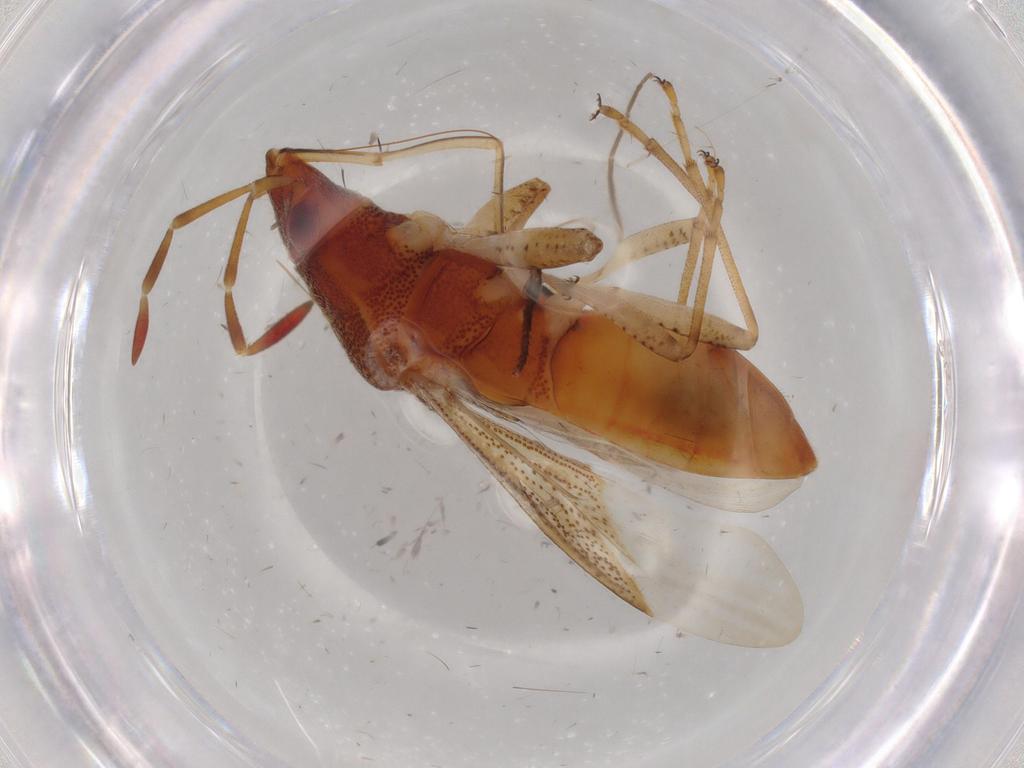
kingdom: Animalia
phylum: Arthropoda
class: Insecta
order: Hemiptera
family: Rhyparochromidae
